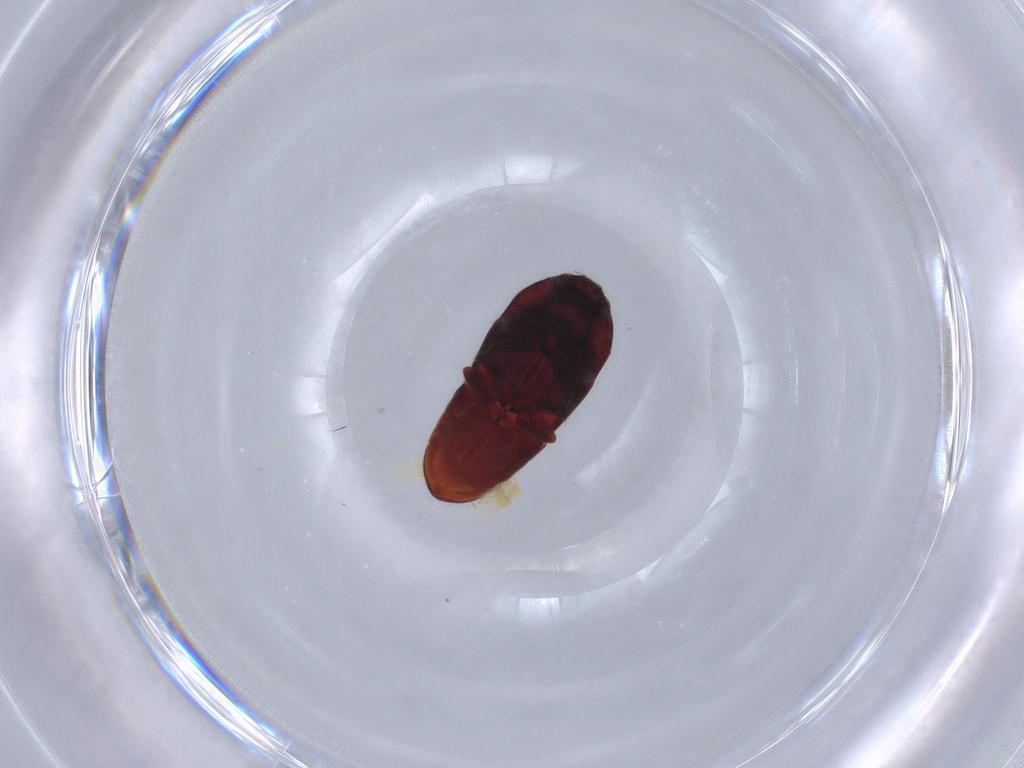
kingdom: Animalia
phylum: Arthropoda
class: Insecta
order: Coleoptera
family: Throscidae
